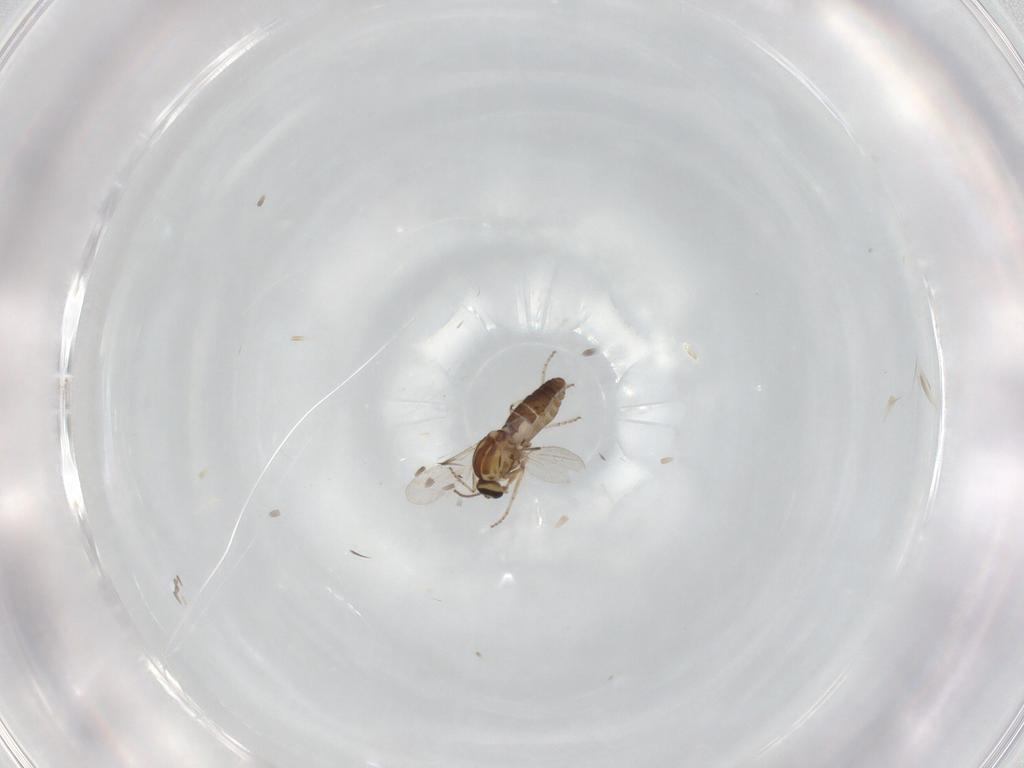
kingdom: Animalia
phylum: Arthropoda
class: Insecta
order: Diptera
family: Ceratopogonidae
